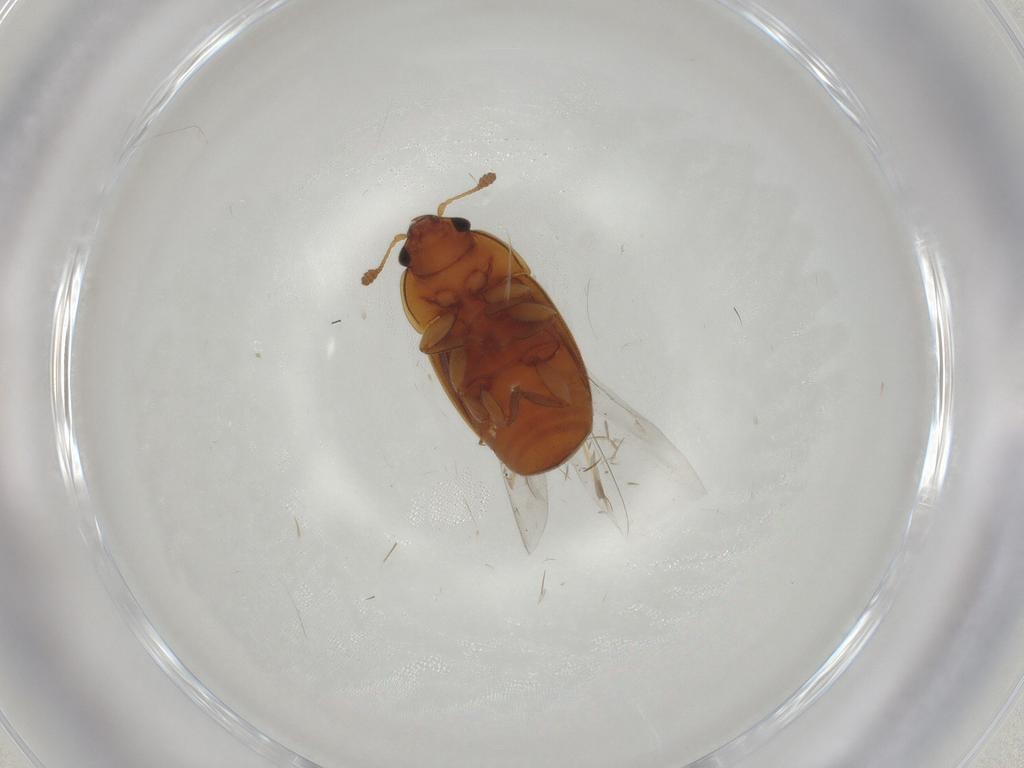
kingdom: Animalia
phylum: Arthropoda
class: Insecta
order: Coleoptera
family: Nitidulidae
